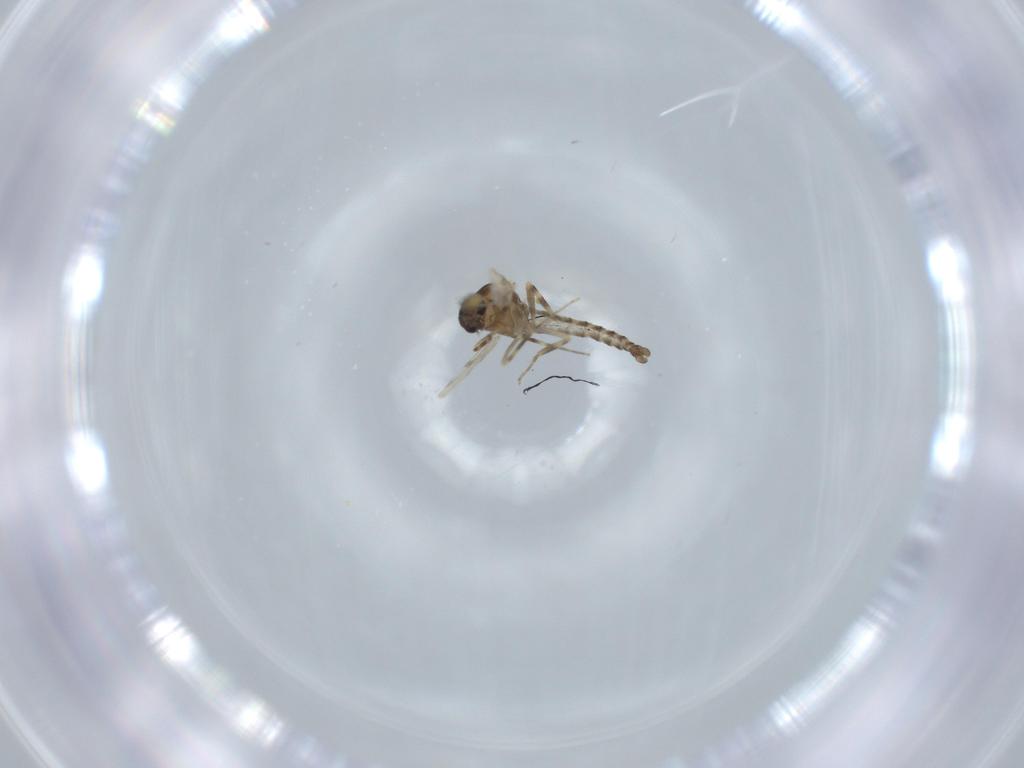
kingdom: Animalia
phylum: Arthropoda
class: Insecta
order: Diptera
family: Ceratopogonidae
